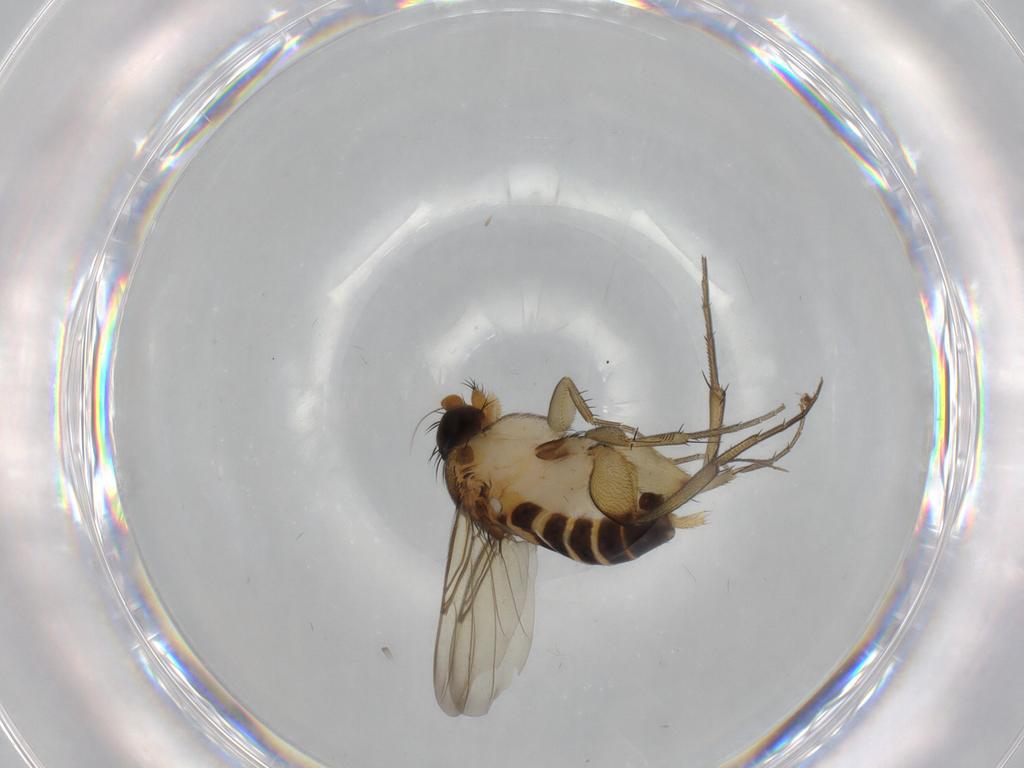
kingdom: Animalia
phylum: Arthropoda
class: Insecta
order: Diptera
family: Phoridae
